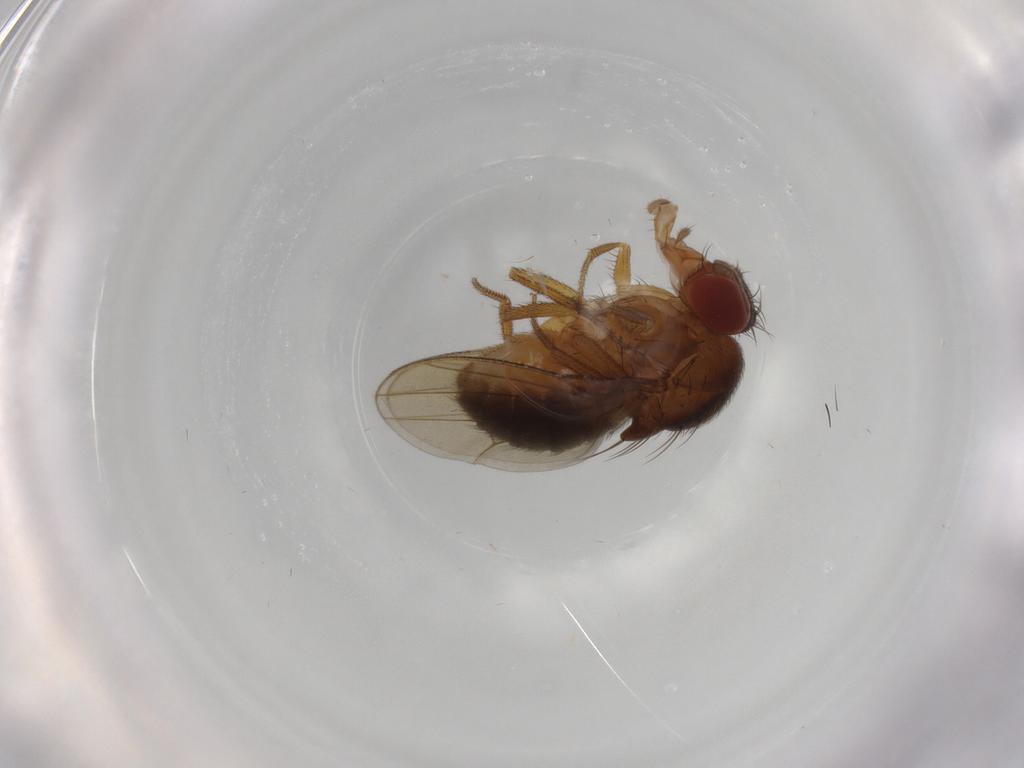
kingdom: Animalia
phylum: Arthropoda
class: Insecta
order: Diptera
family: Drosophilidae
